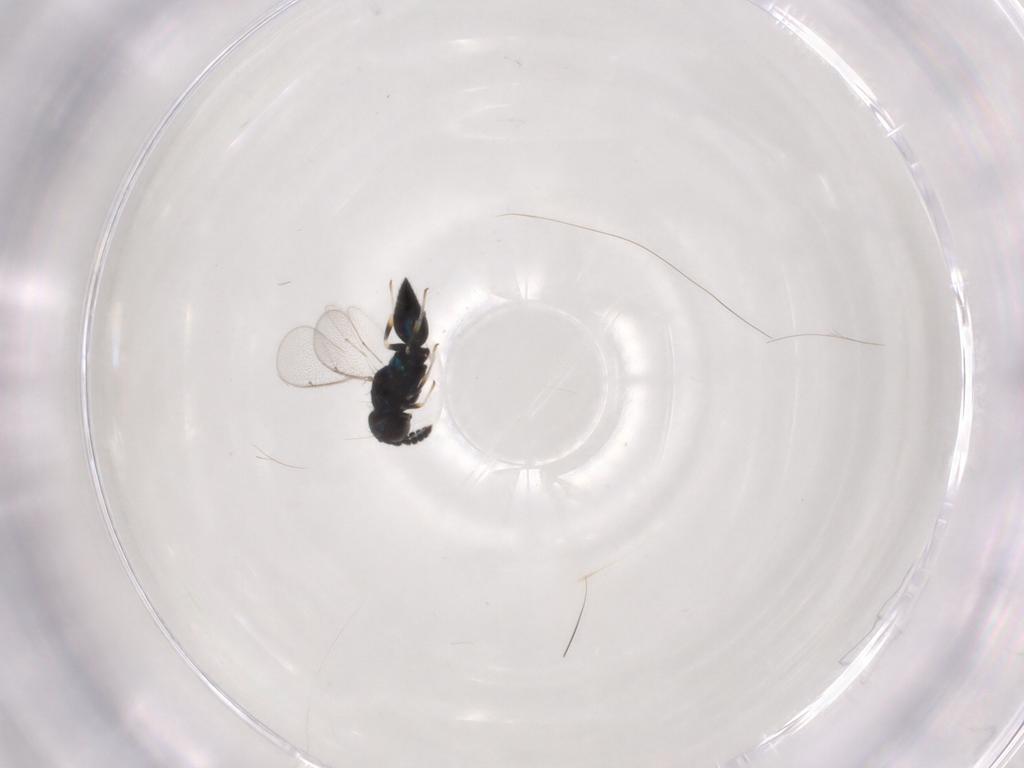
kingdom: Animalia
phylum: Arthropoda
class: Insecta
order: Hymenoptera
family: Eulophidae
